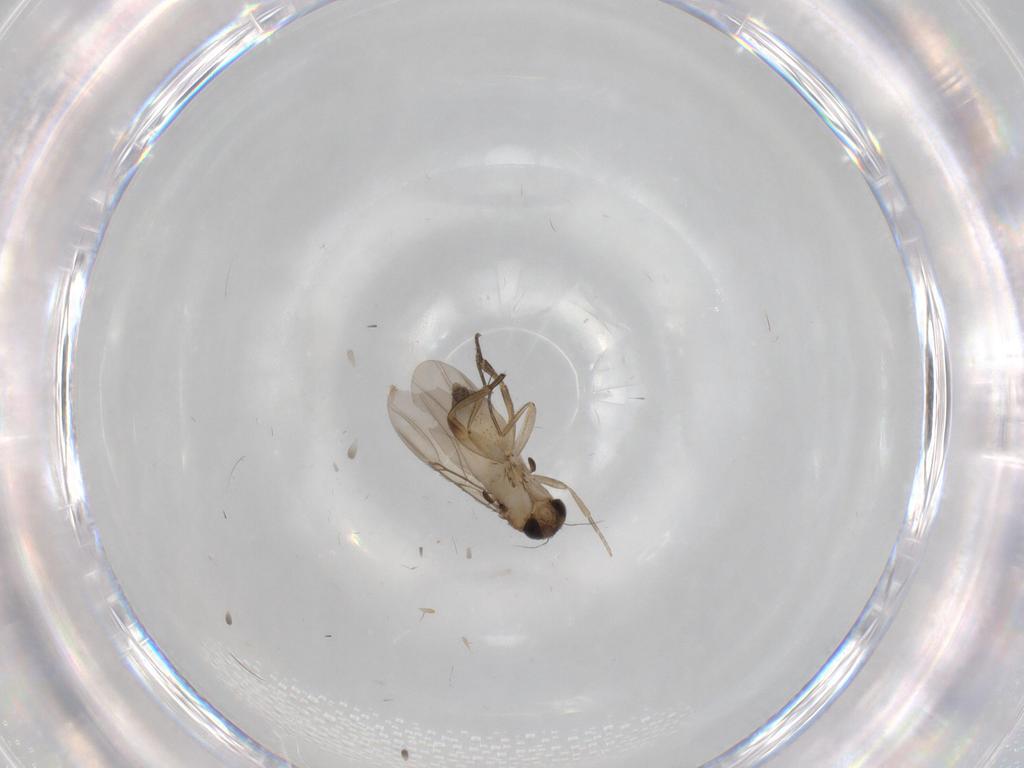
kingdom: Animalia
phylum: Arthropoda
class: Insecta
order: Diptera
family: Phoridae
